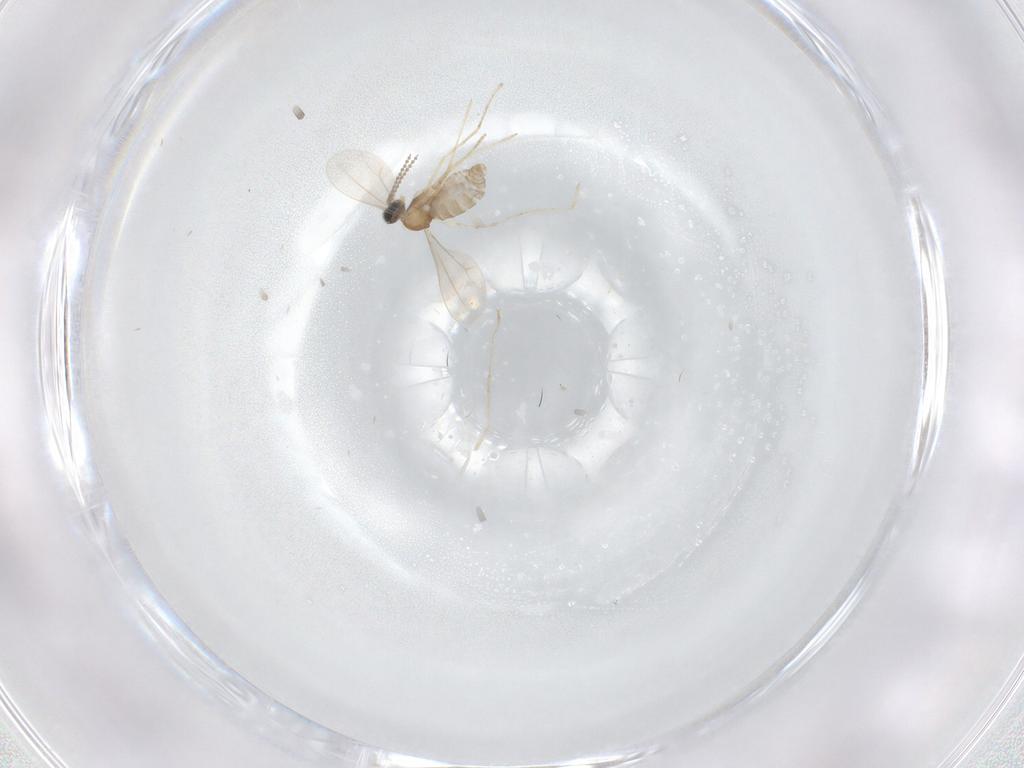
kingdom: Animalia
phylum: Arthropoda
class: Insecta
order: Diptera
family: Cecidomyiidae
